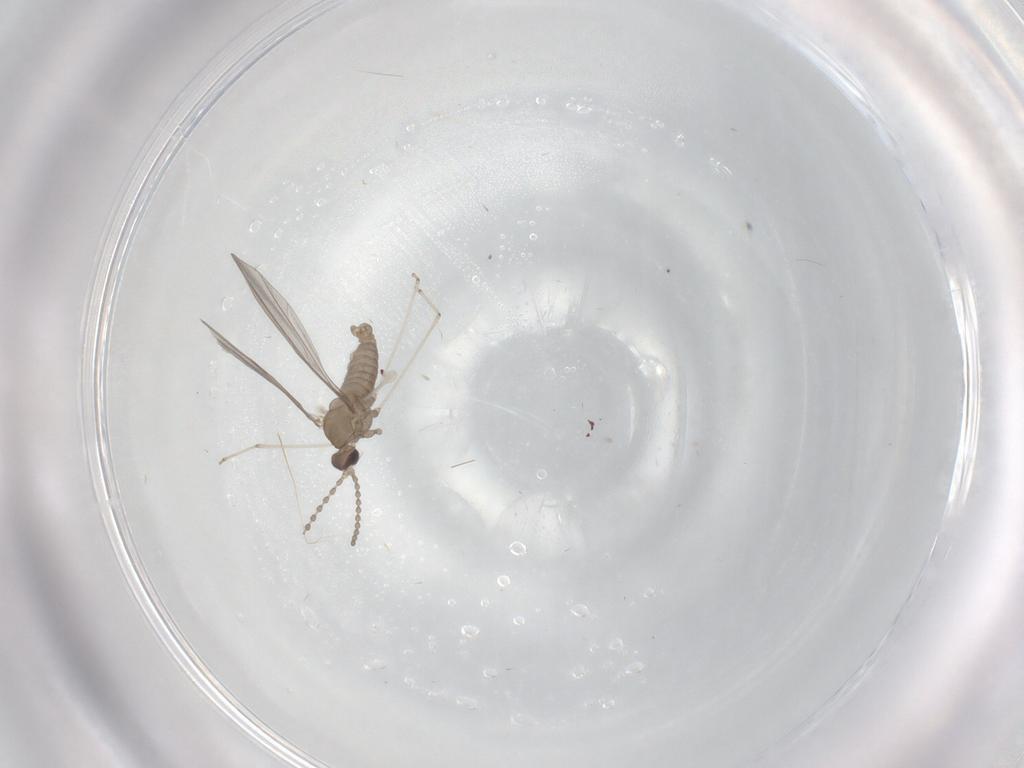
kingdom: Animalia
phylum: Arthropoda
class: Insecta
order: Diptera
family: Cecidomyiidae
